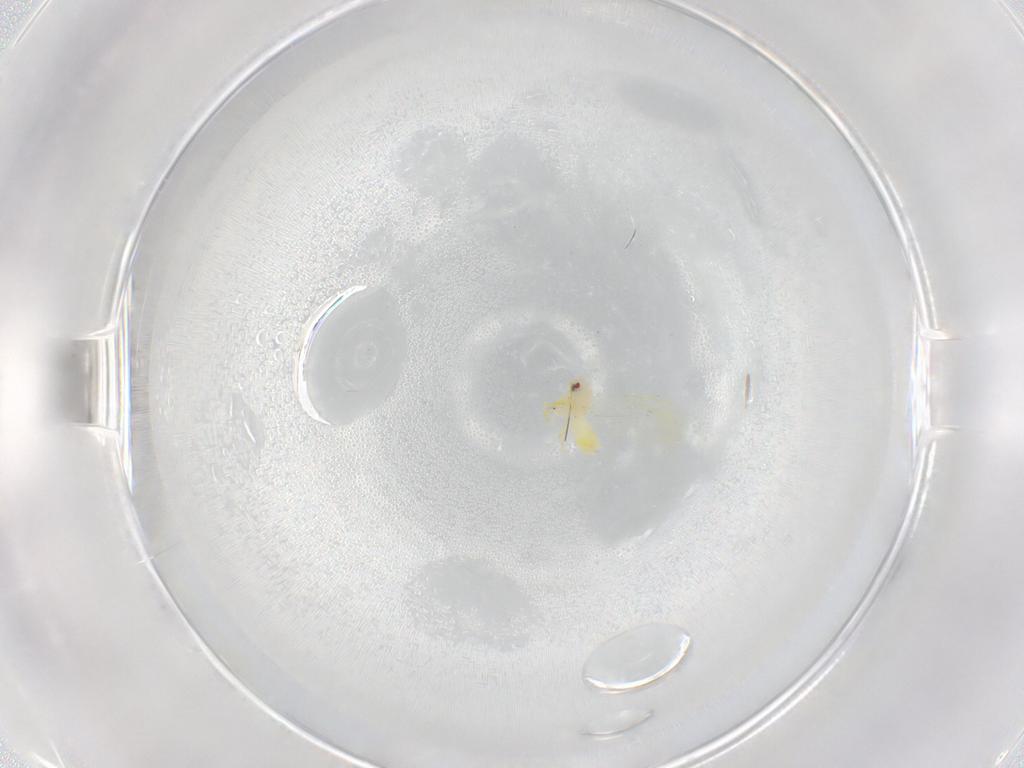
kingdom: Animalia
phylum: Arthropoda
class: Insecta
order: Hemiptera
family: Aleyrodidae
